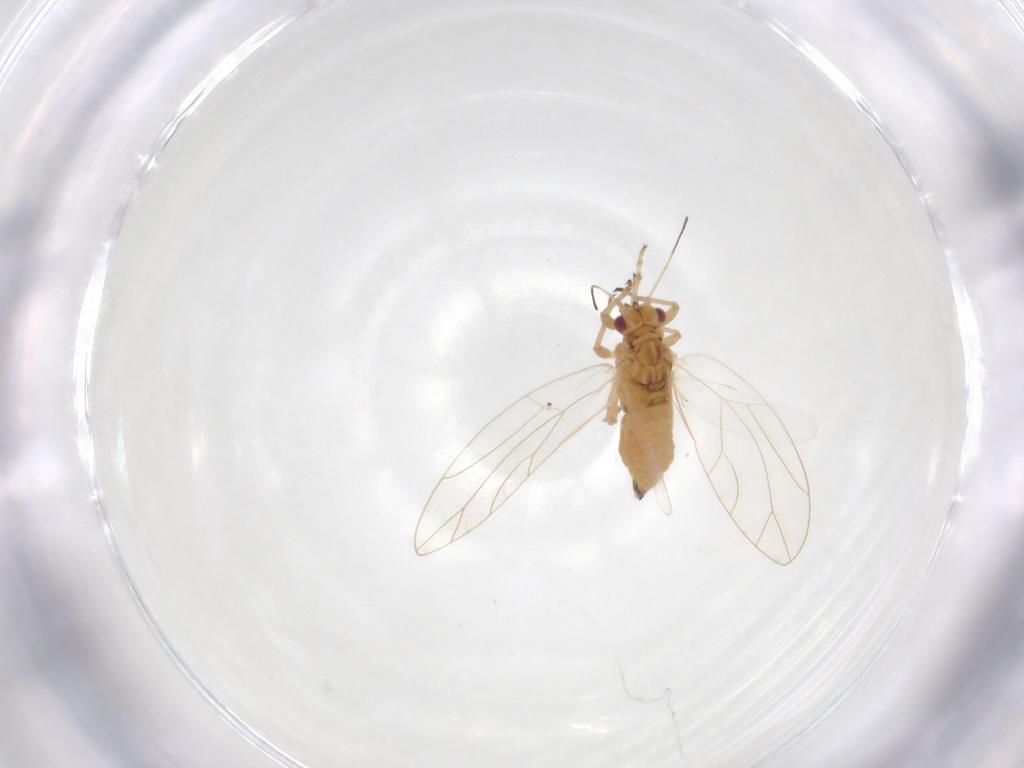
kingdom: Animalia
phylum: Arthropoda
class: Insecta
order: Hemiptera
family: Triozidae
